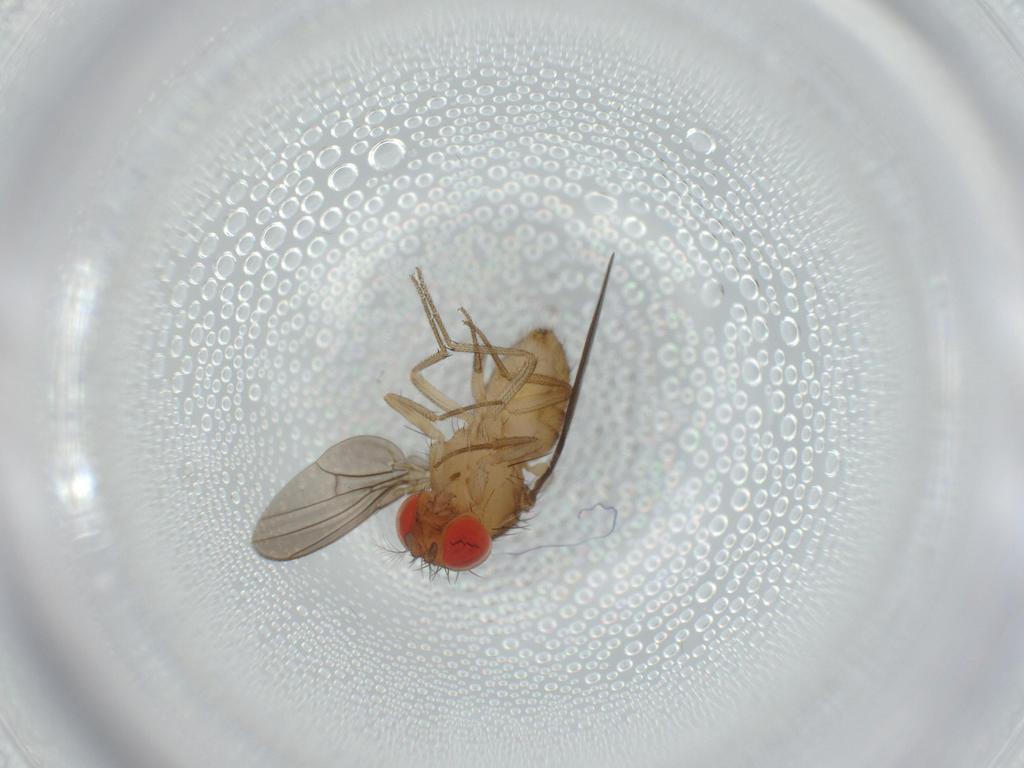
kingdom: Animalia
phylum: Arthropoda
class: Insecta
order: Diptera
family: Drosophilidae
